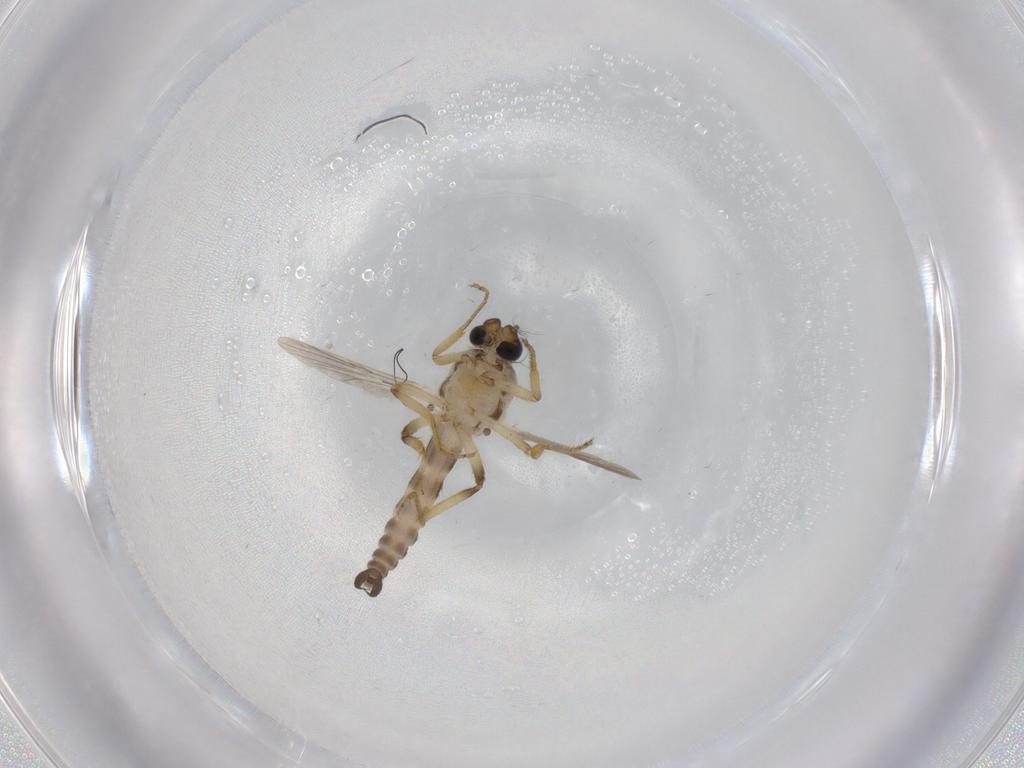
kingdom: Animalia
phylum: Arthropoda
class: Insecta
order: Diptera
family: Ceratopogonidae
